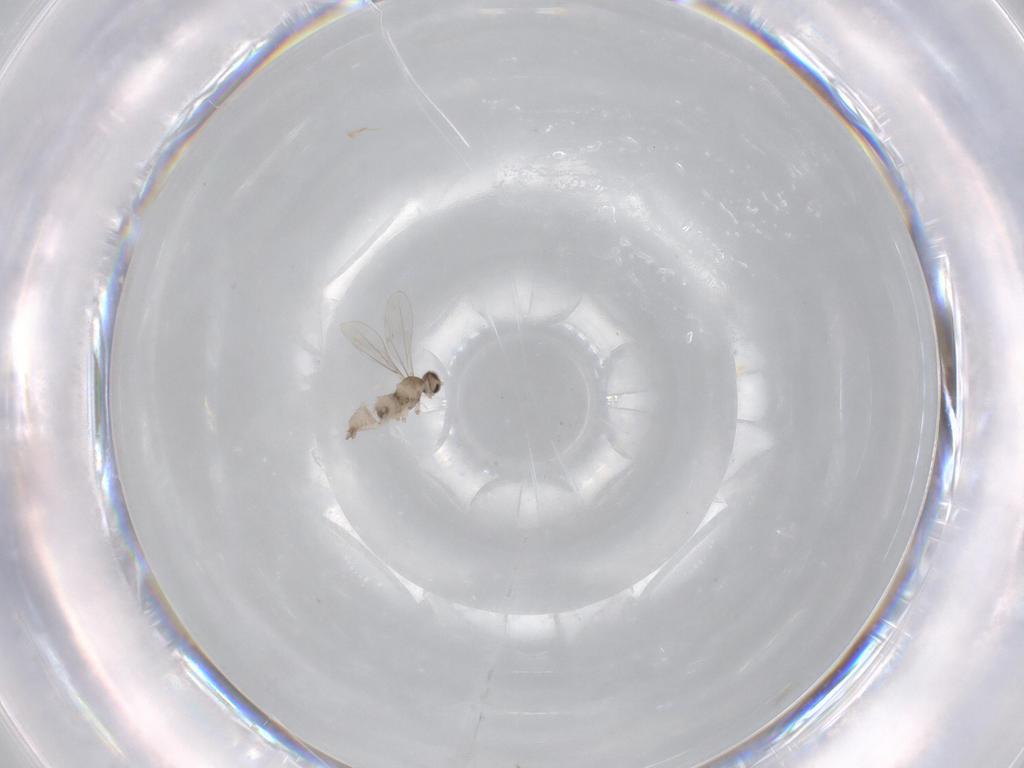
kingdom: Animalia
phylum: Arthropoda
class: Insecta
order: Diptera
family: Cecidomyiidae
